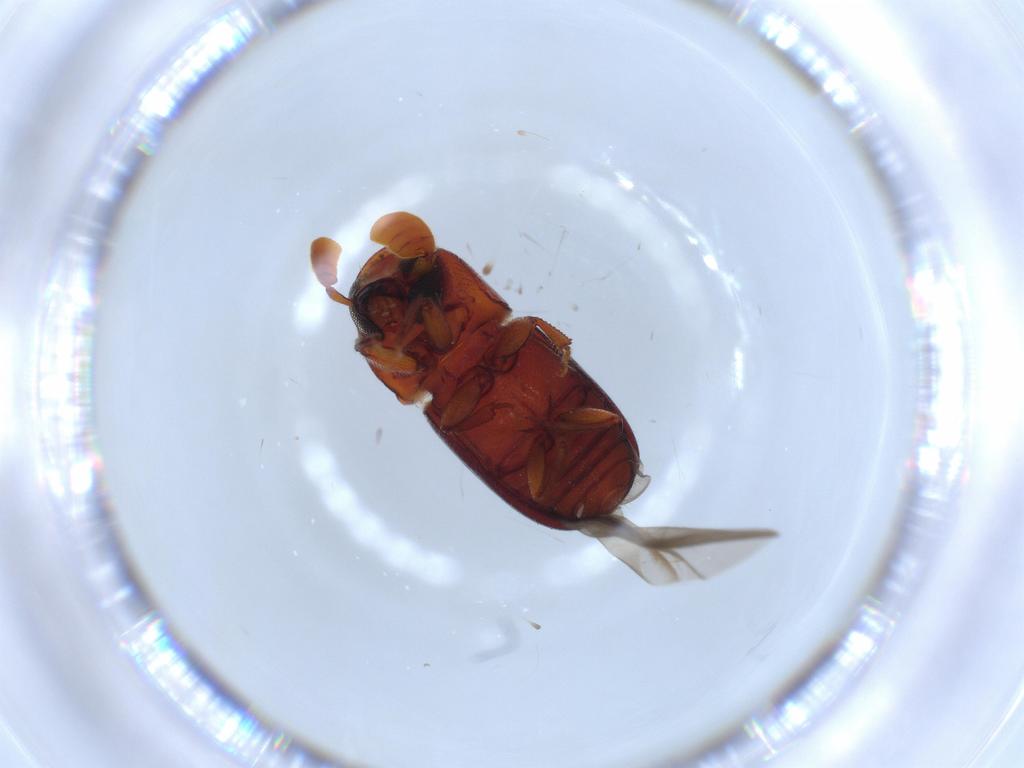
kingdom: Animalia
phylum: Arthropoda
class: Insecta
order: Coleoptera
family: Curculionidae
